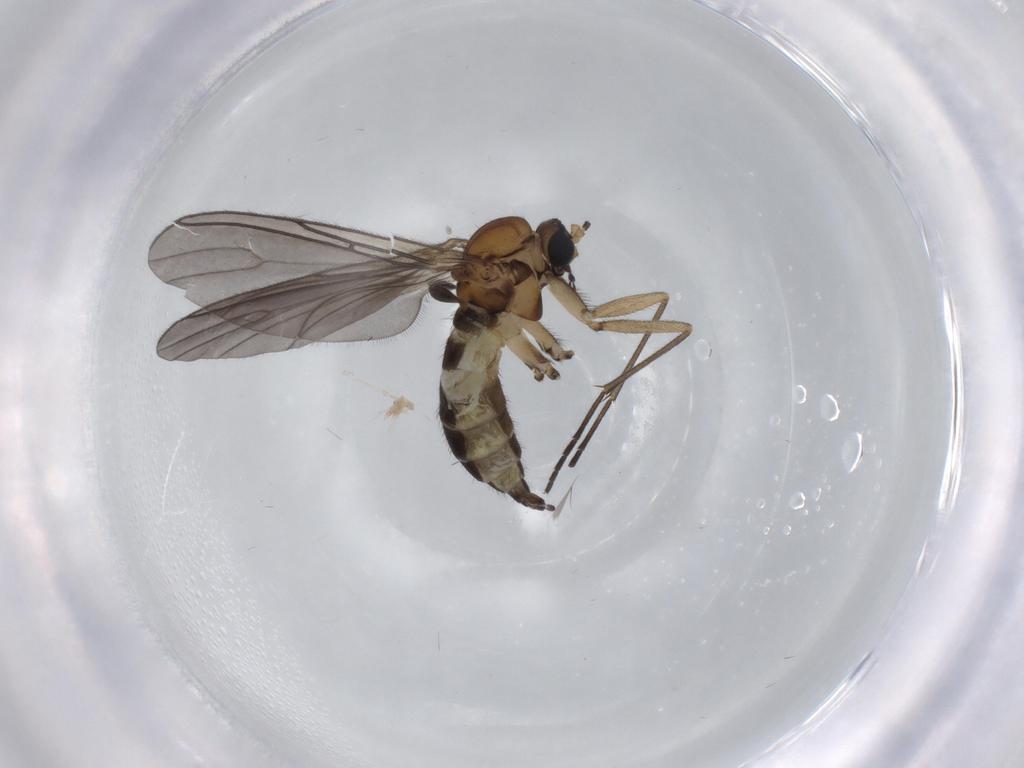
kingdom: Animalia
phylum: Arthropoda
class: Insecta
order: Diptera
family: Sciaridae
